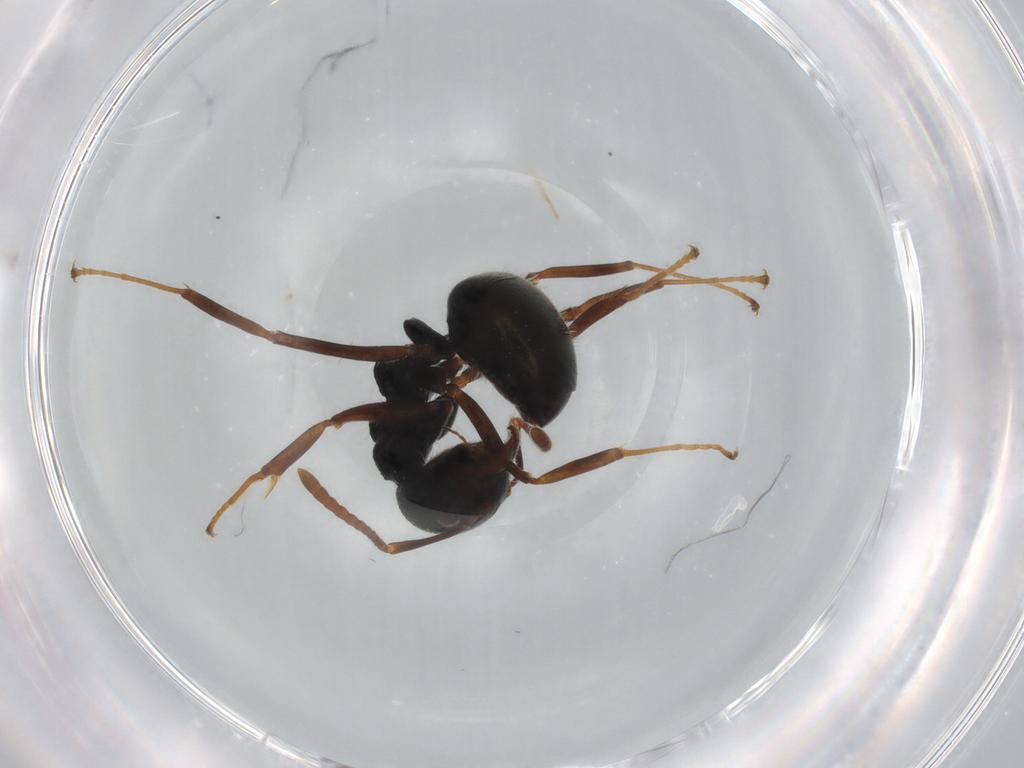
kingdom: Animalia
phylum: Arthropoda
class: Insecta
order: Hymenoptera
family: Formicidae
